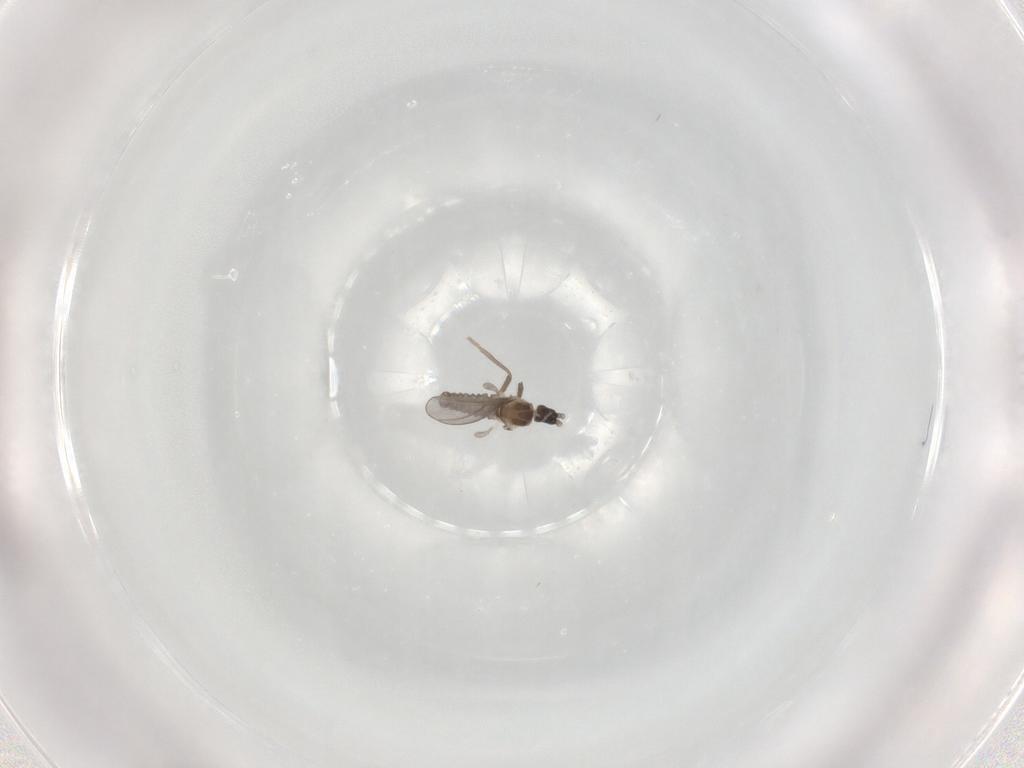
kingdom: Animalia
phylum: Arthropoda
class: Insecta
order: Diptera
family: Cecidomyiidae
